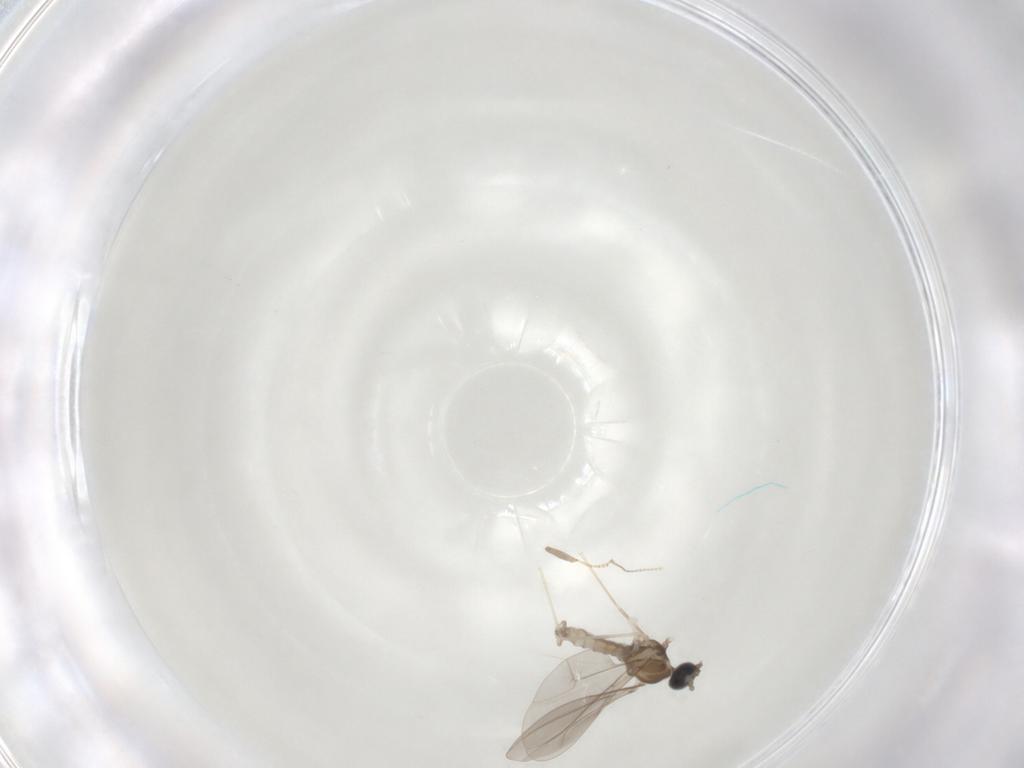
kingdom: Animalia
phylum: Arthropoda
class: Insecta
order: Diptera
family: Cecidomyiidae
